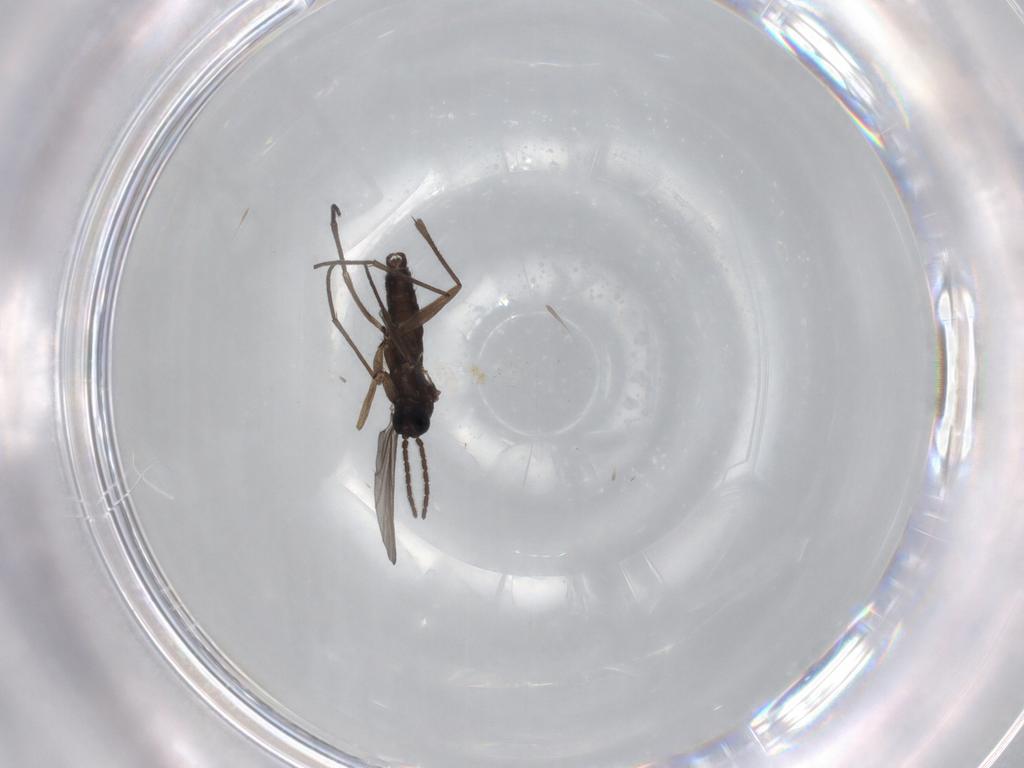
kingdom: Animalia
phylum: Arthropoda
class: Insecta
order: Diptera
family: Sciaridae
